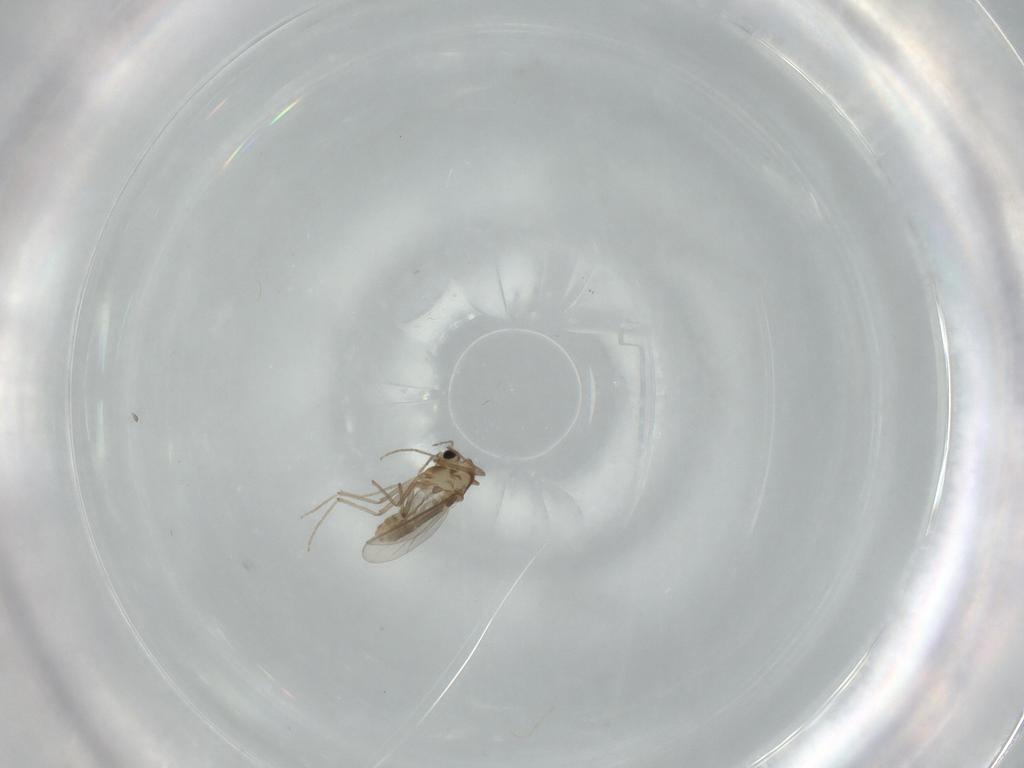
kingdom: Animalia
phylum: Arthropoda
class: Insecta
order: Diptera
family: Chironomidae
